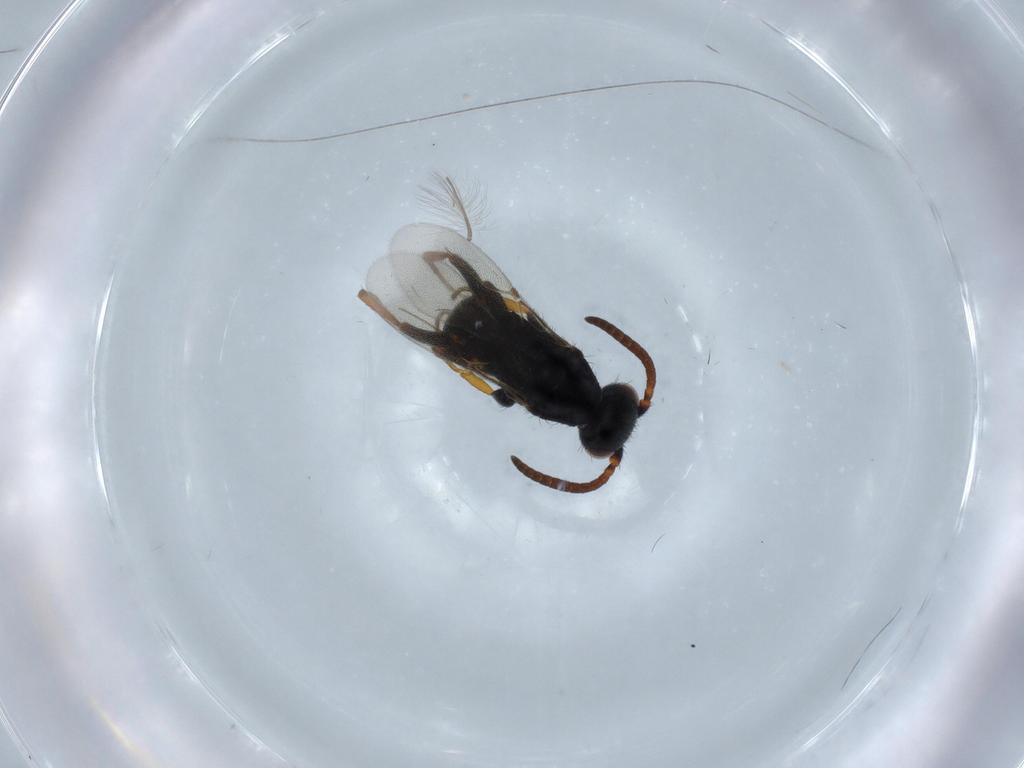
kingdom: Animalia
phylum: Arthropoda
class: Insecta
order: Hymenoptera
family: Bethylidae
